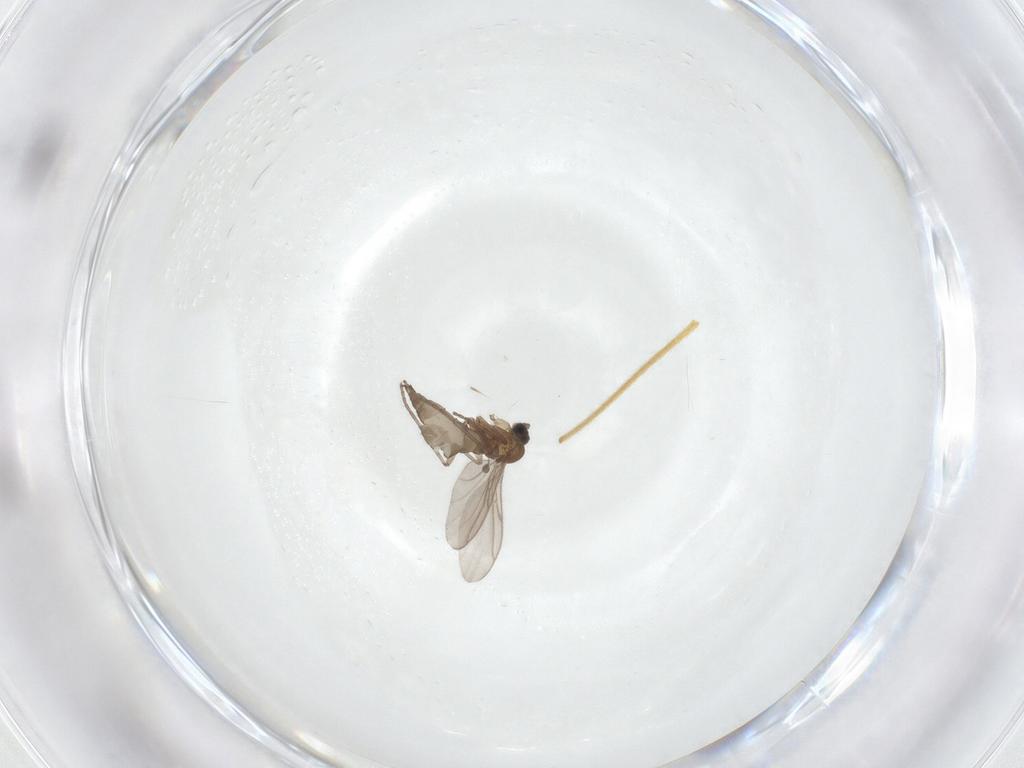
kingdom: Animalia
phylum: Arthropoda
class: Insecta
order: Diptera
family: Sciaridae
